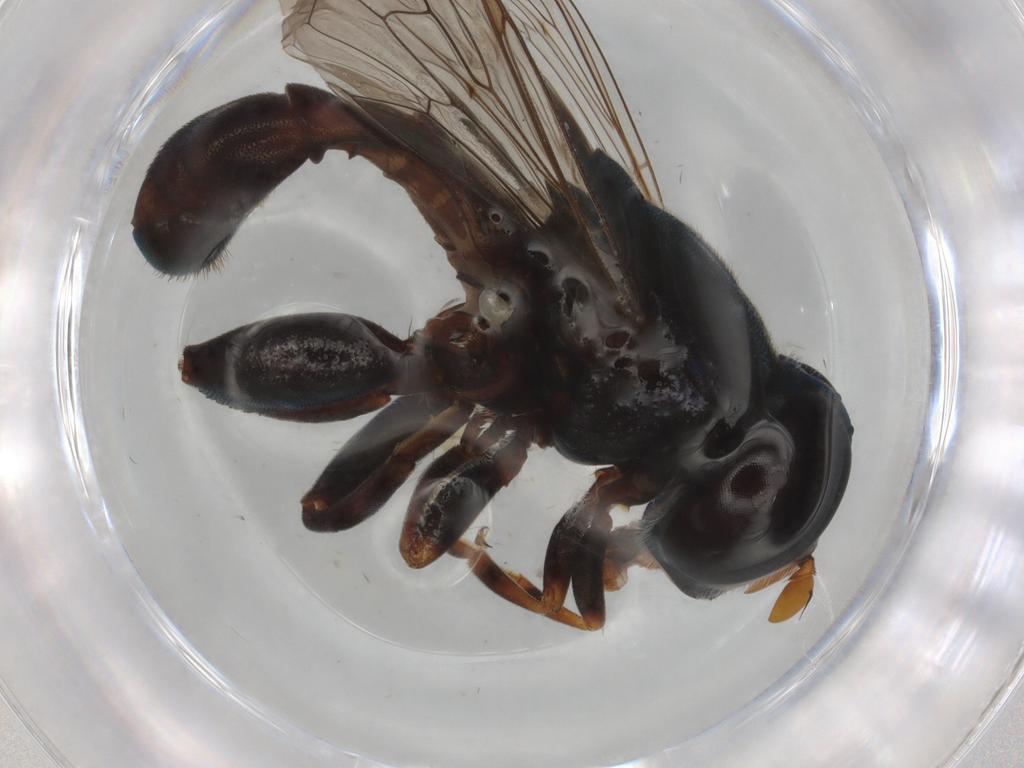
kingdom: Animalia
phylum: Arthropoda
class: Insecta
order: Diptera
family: Syrphidae
